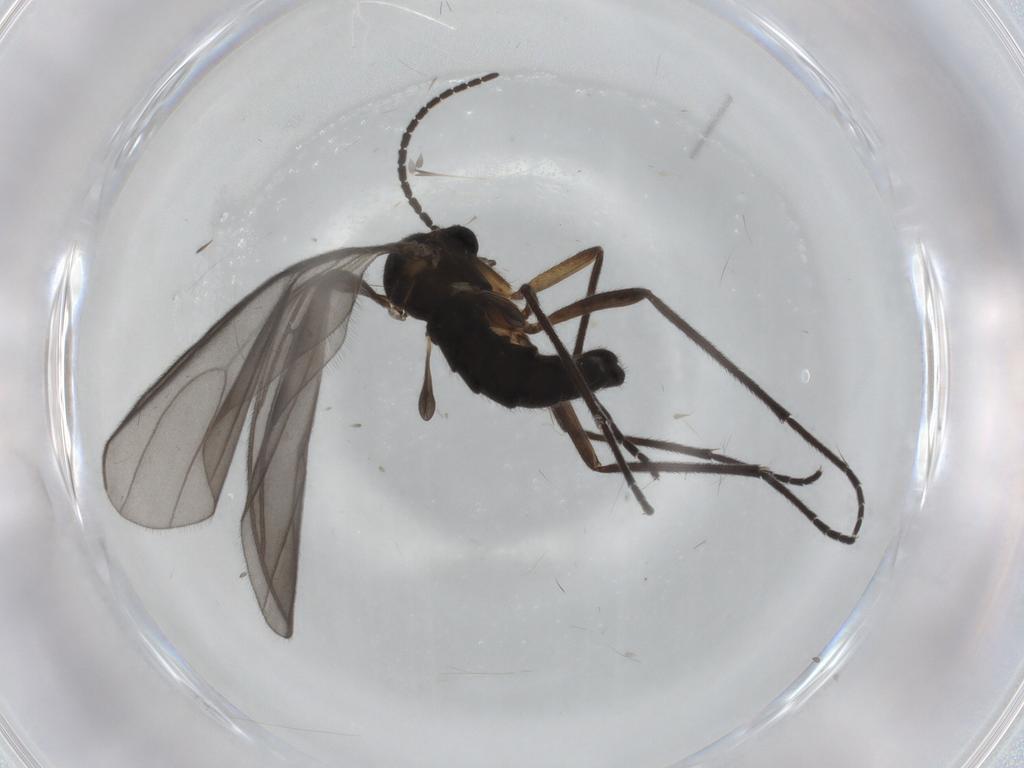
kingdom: Animalia
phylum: Arthropoda
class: Insecta
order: Diptera
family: Sciaridae
